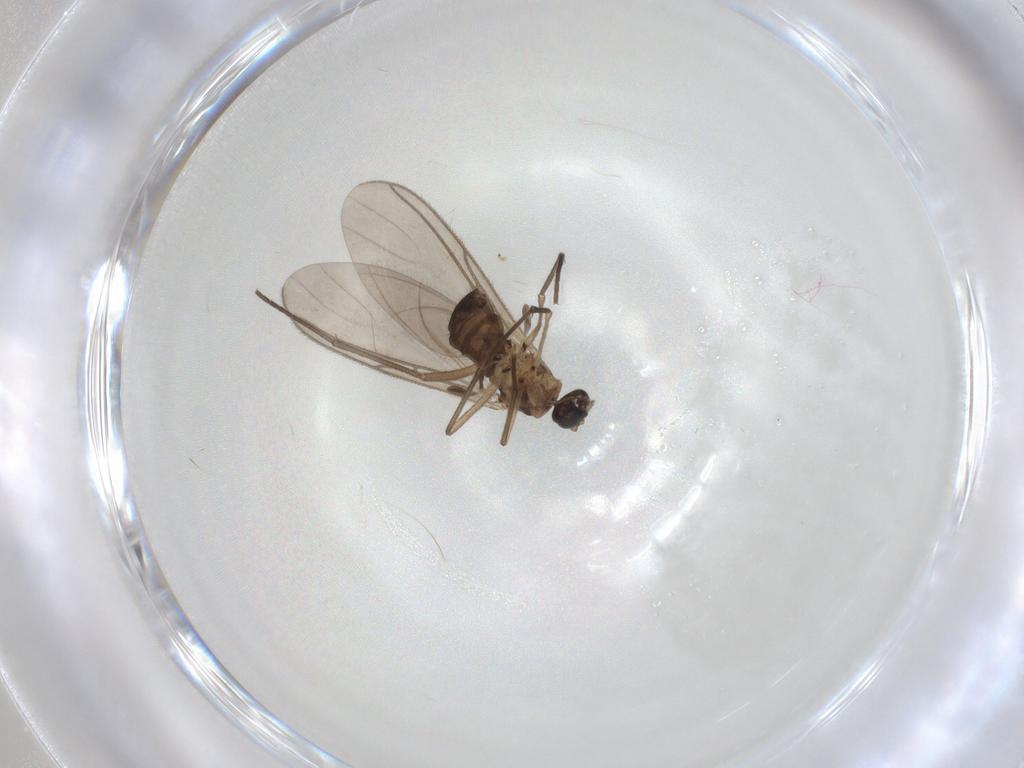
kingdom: Animalia
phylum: Arthropoda
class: Insecta
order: Diptera
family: Sciaridae
